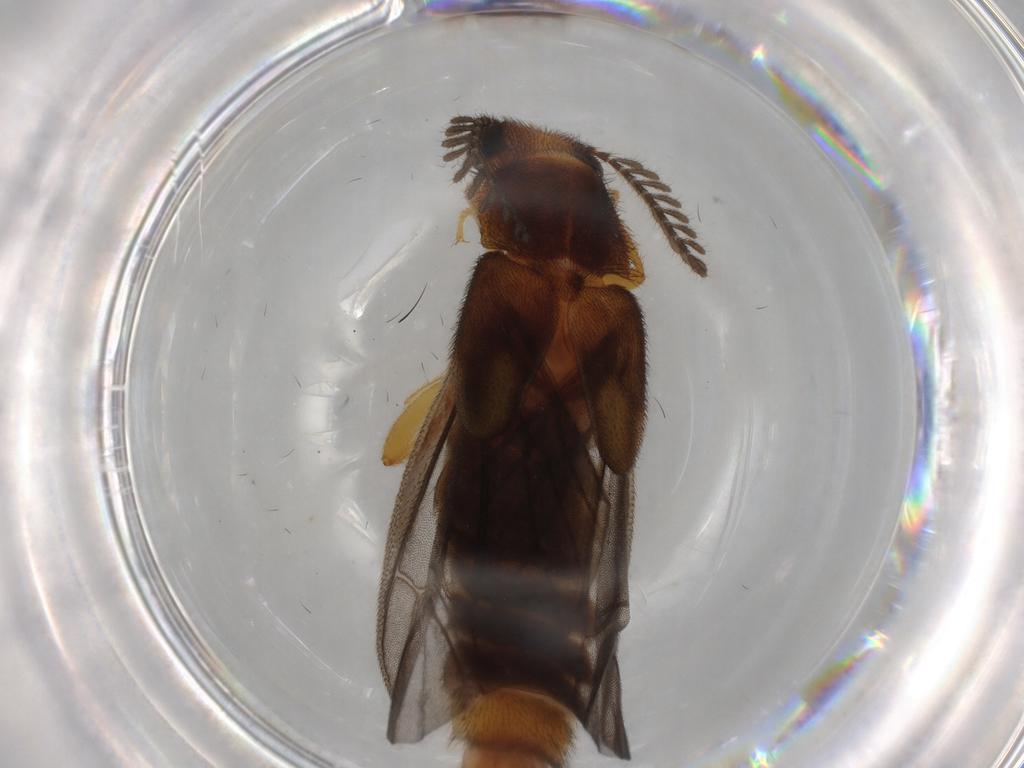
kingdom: Animalia
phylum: Arthropoda
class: Insecta
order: Coleoptera
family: Phengodidae
